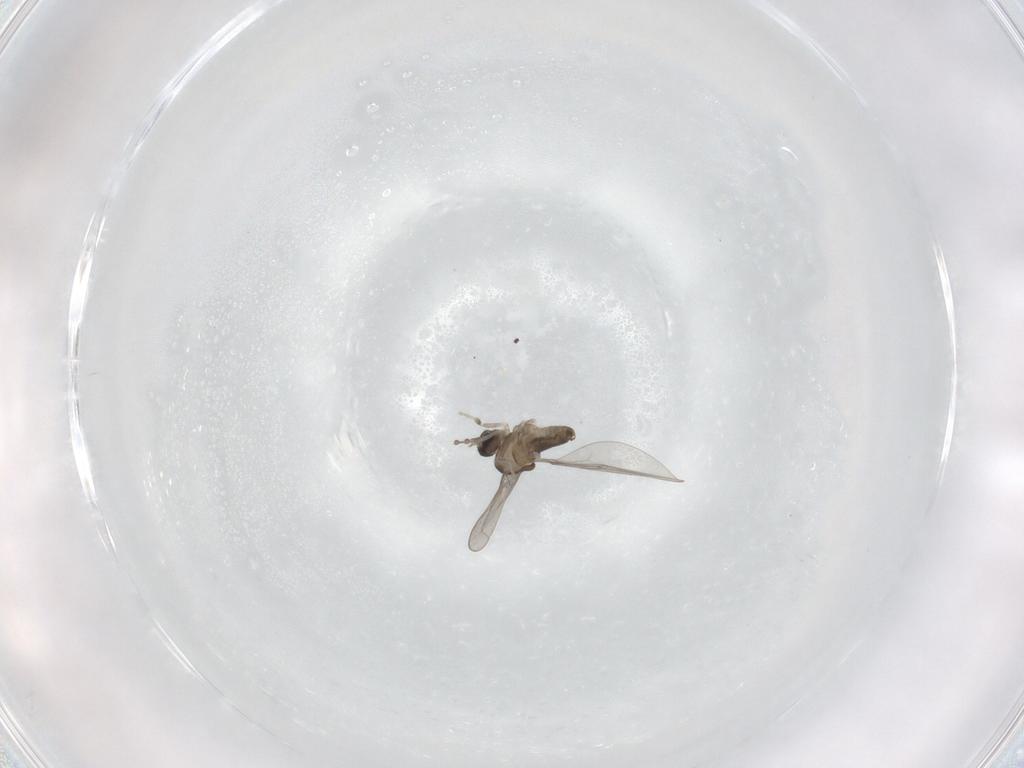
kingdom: Animalia
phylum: Arthropoda
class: Insecta
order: Diptera
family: Cecidomyiidae
